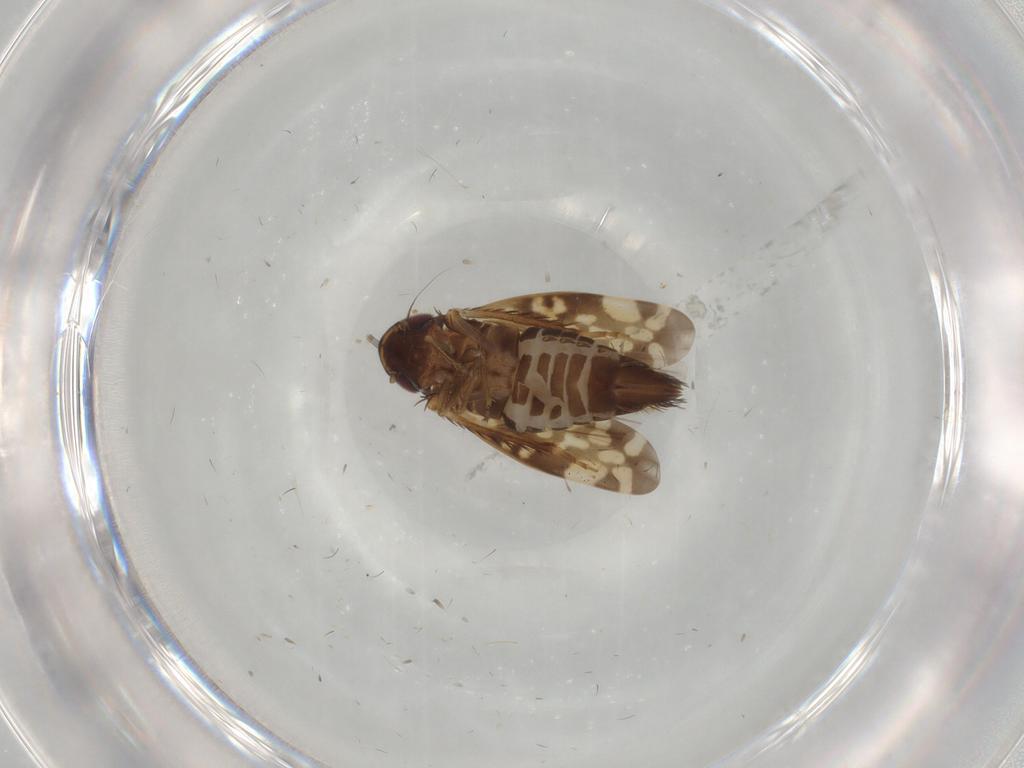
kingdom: Animalia
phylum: Arthropoda
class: Insecta
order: Hemiptera
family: Cicadellidae
